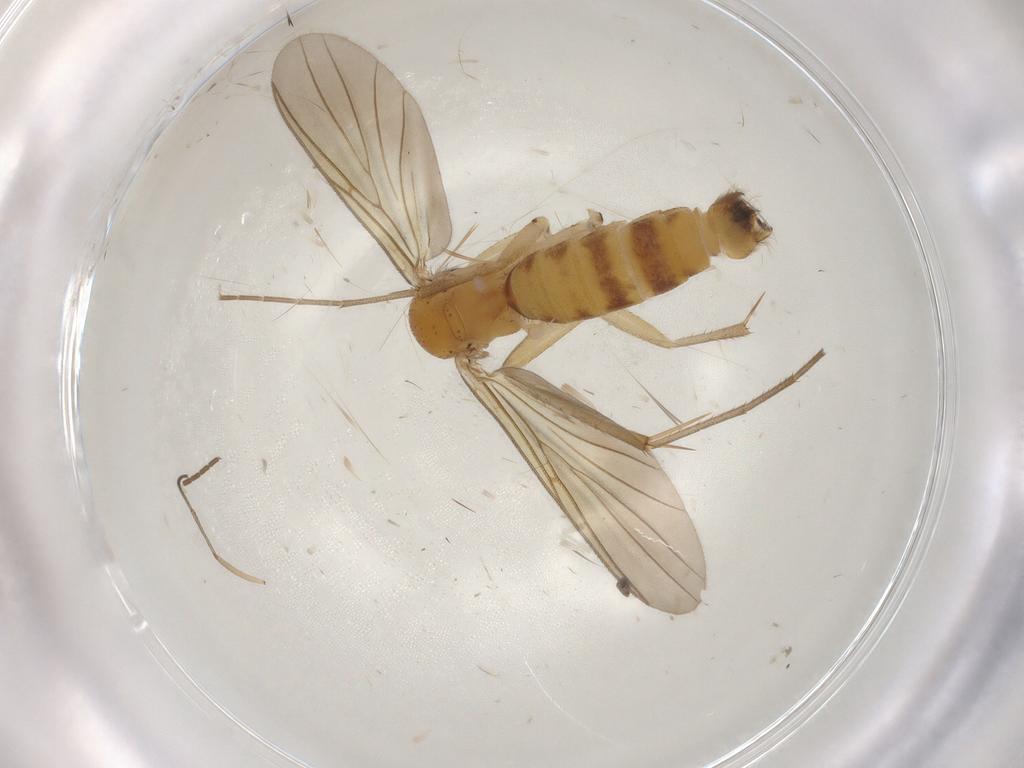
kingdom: Animalia
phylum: Arthropoda
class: Insecta
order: Diptera
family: Mycetophilidae
